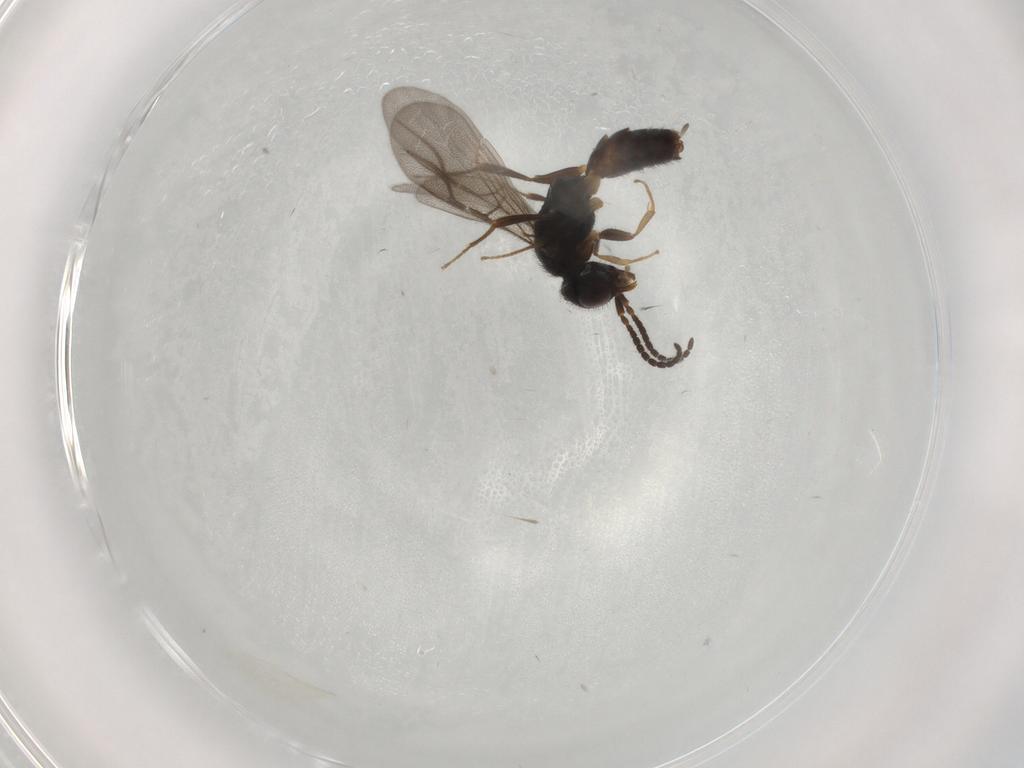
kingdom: Animalia
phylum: Arthropoda
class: Insecta
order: Hymenoptera
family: Bethylidae
